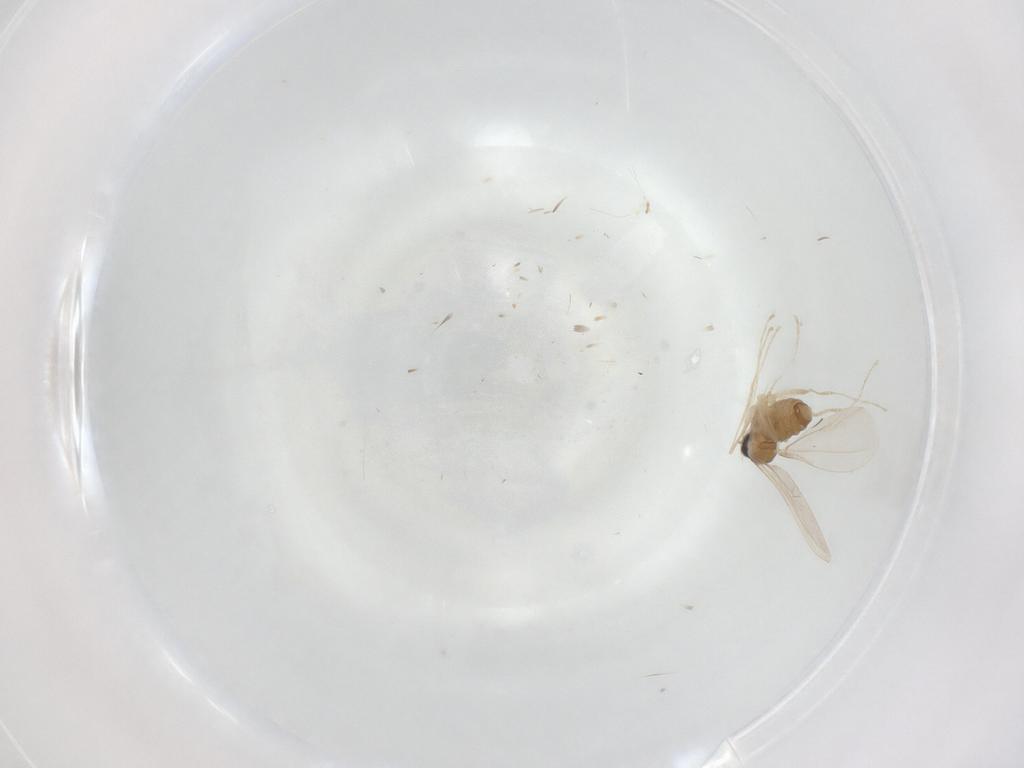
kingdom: Animalia
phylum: Arthropoda
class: Insecta
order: Diptera
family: Cecidomyiidae
